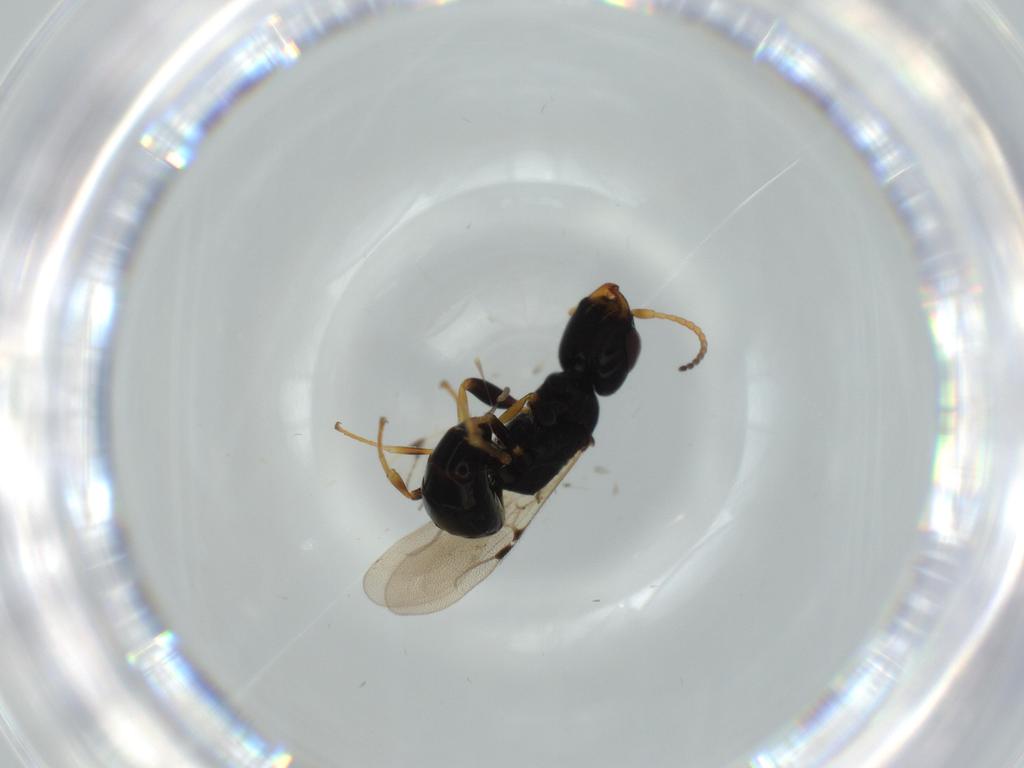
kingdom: Animalia
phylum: Arthropoda
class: Insecta
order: Hymenoptera
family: Bethylidae
